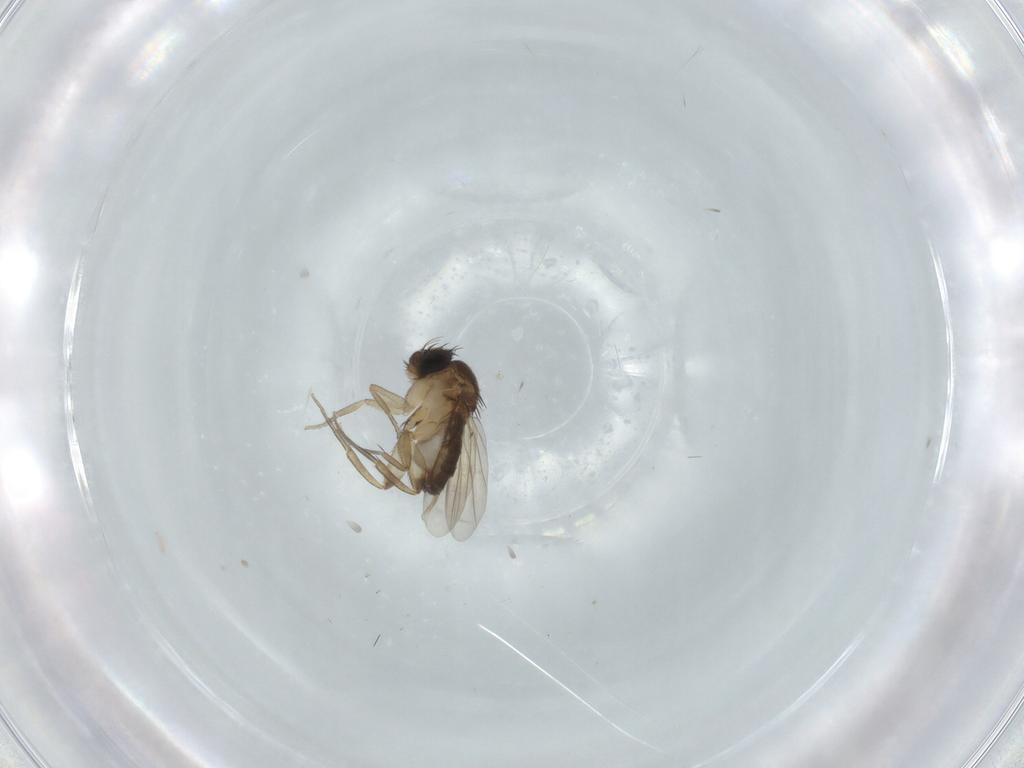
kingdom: Animalia
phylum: Arthropoda
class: Insecta
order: Diptera
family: Phoridae
